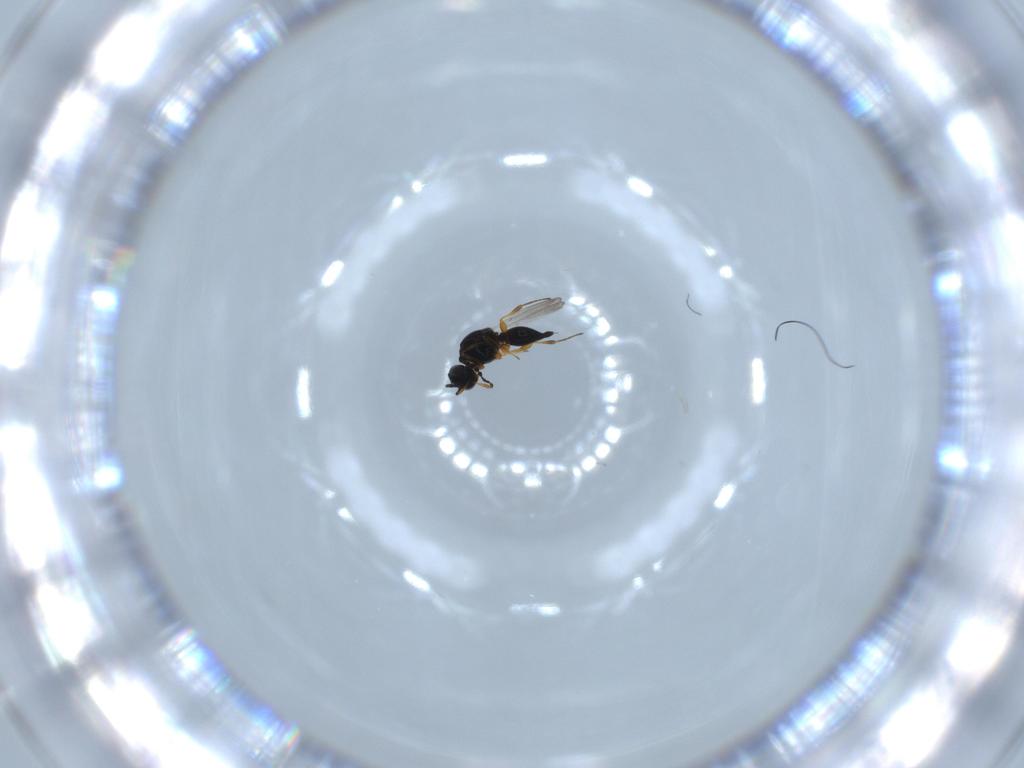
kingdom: Animalia
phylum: Arthropoda
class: Insecta
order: Hymenoptera
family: Platygastridae
